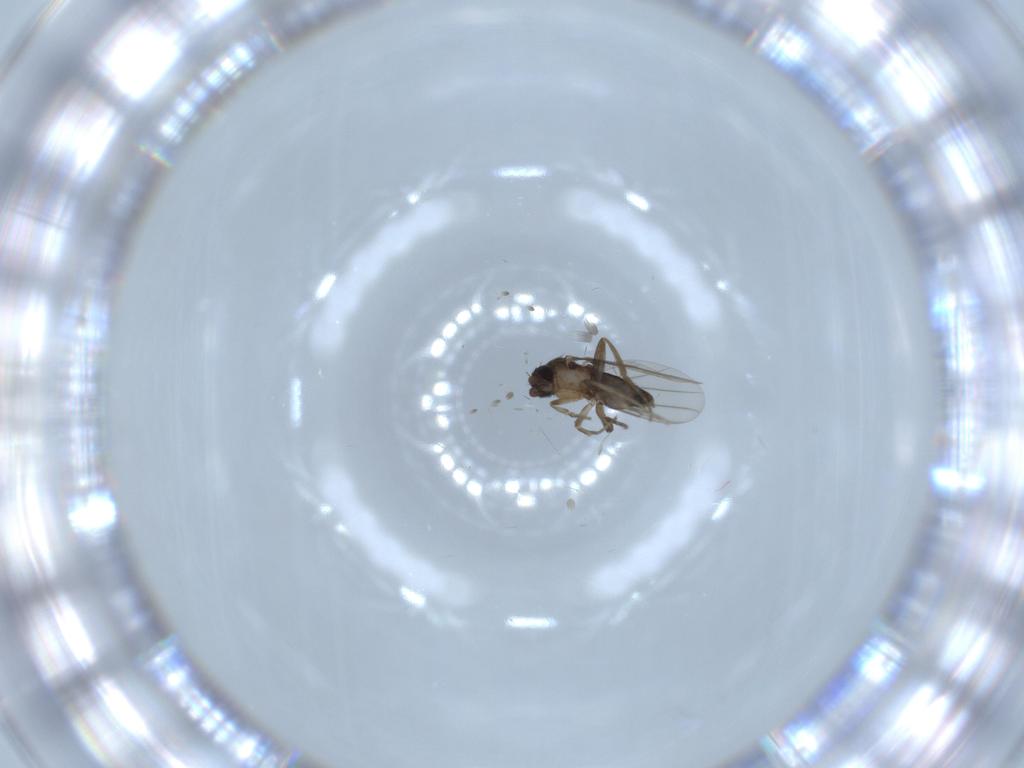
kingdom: Animalia
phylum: Arthropoda
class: Insecta
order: Diptera
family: Phoridae
